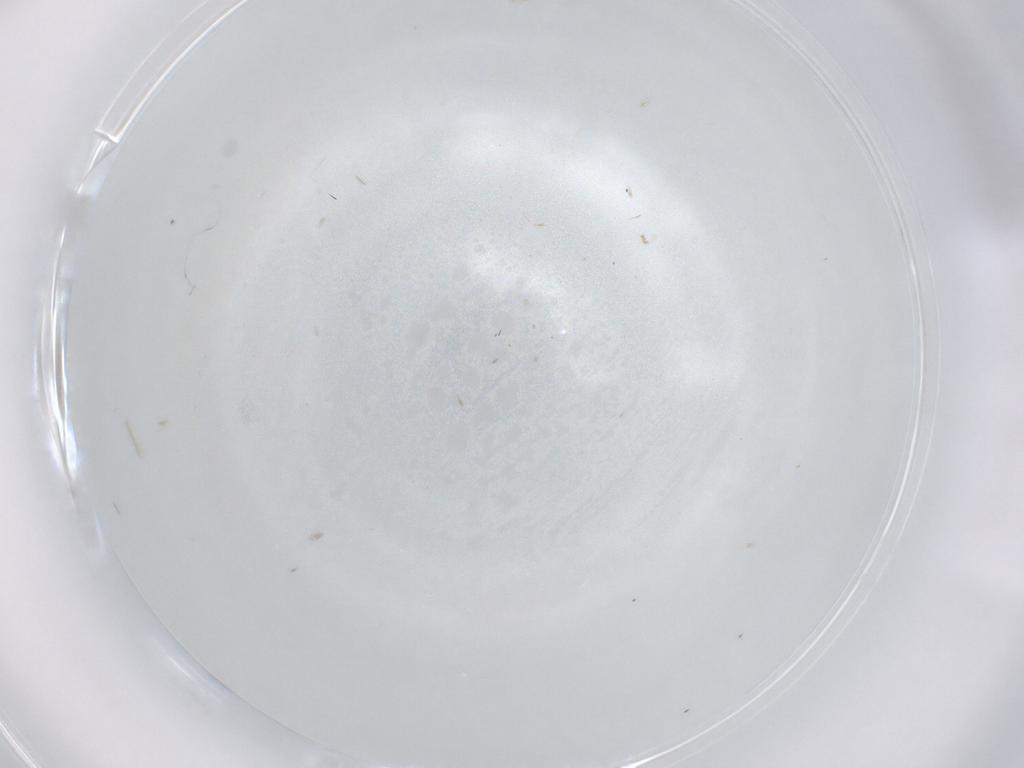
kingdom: Animalia
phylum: Arthropoda
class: Insecta
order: Diptera
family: Cecidomyiidae
